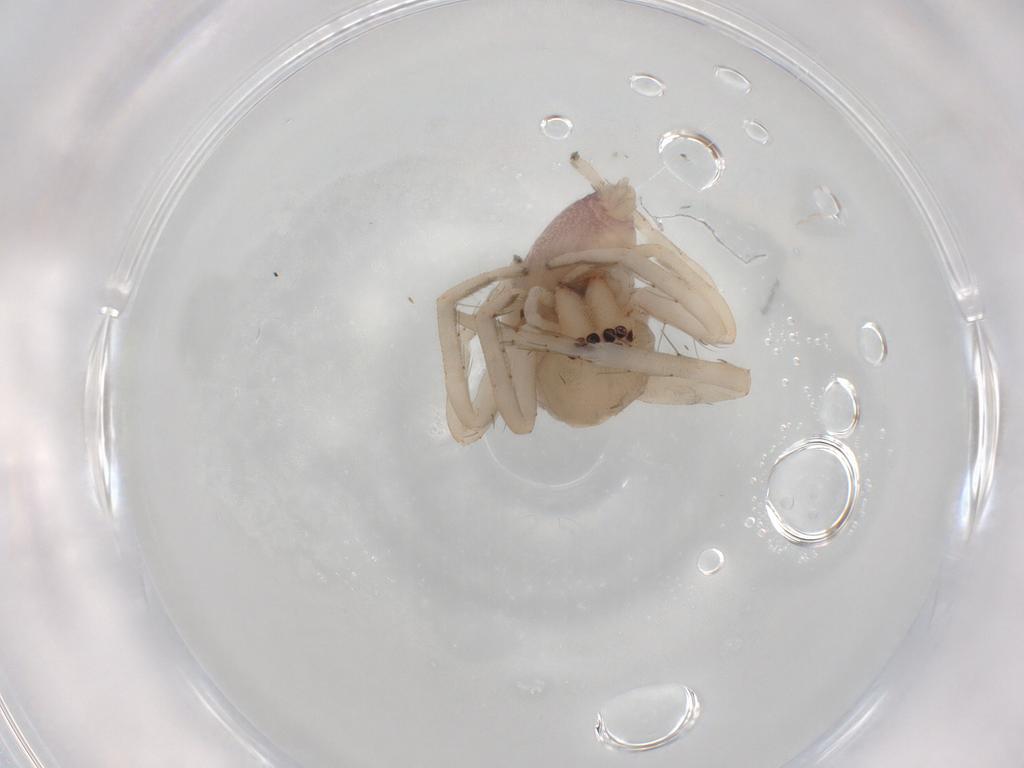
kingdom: Animalia
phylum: Arthropoda
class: Arachnida
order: Araneae
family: Clubionidae
